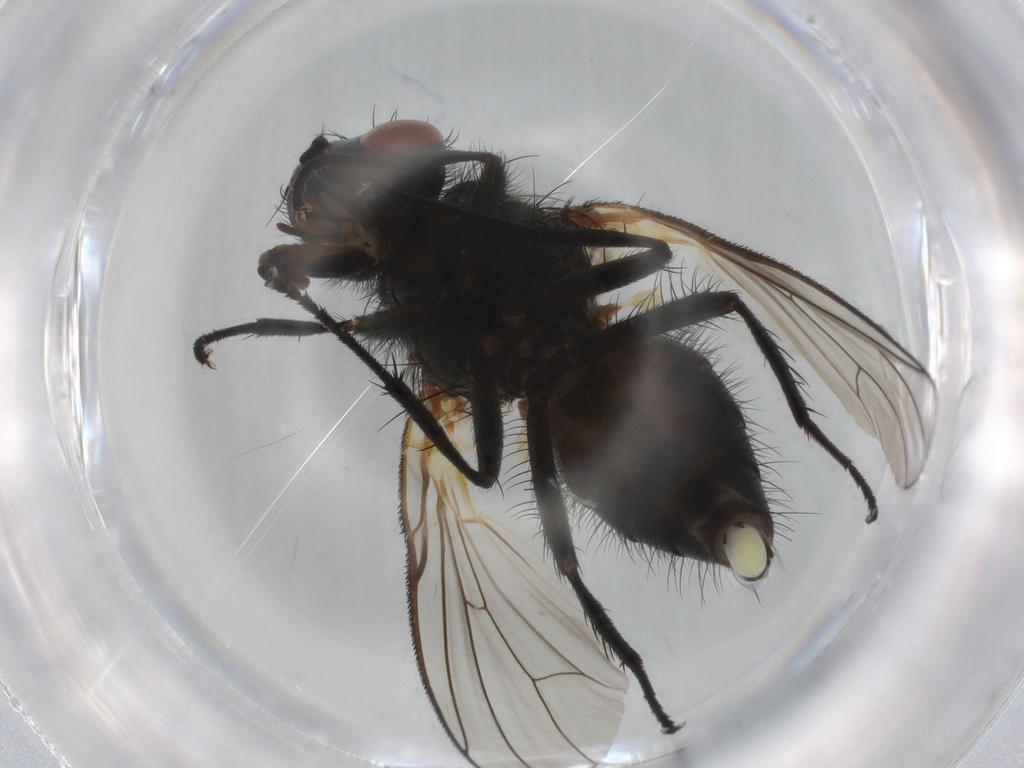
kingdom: Animalia
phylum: Arthropoda
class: Insecta
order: Diptera
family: Anthomyiidae
